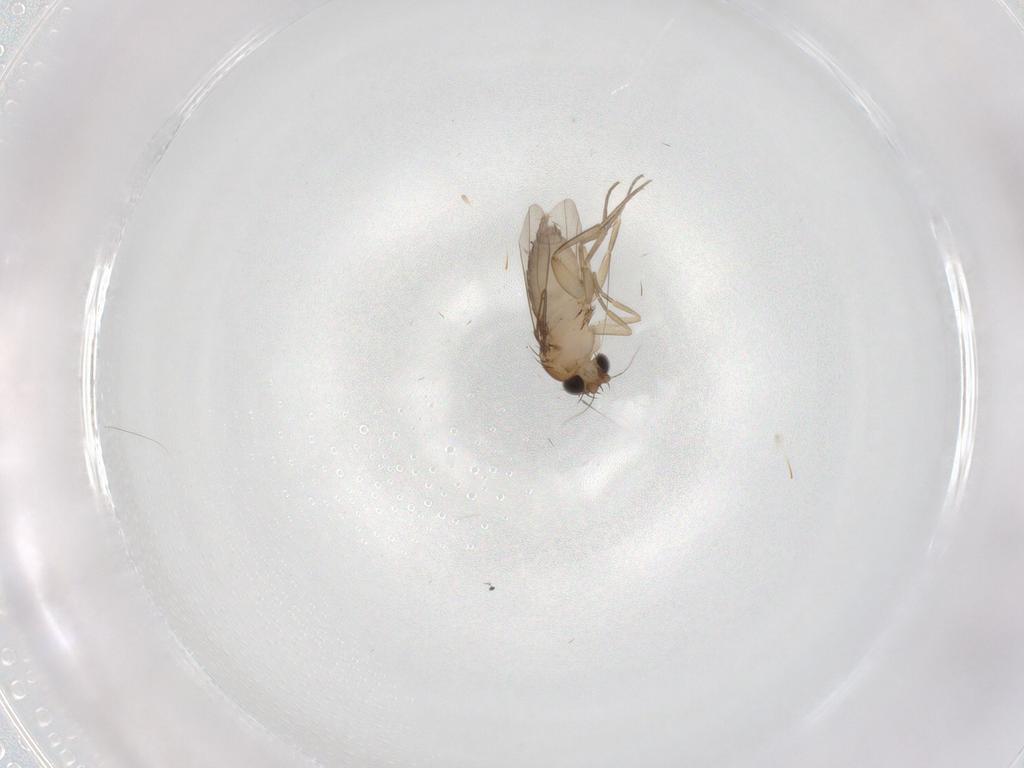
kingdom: Animalia
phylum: Arthropoda
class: Insecta
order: Diptera
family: Phoridae
